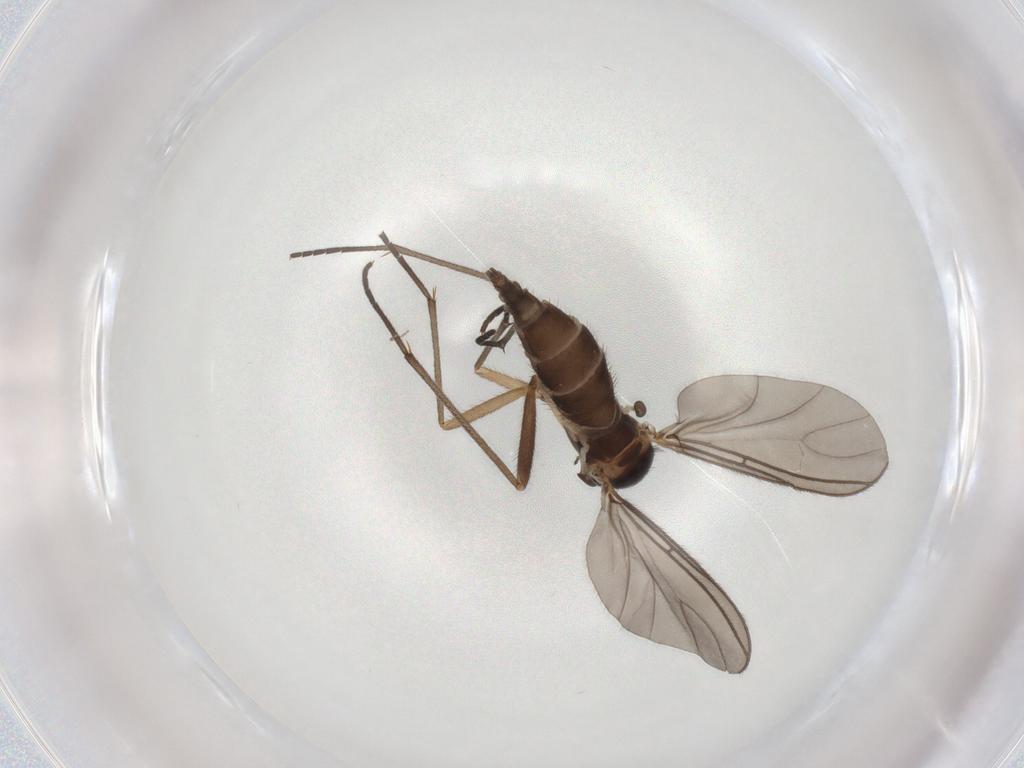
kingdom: Animalia
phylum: Arthropoda
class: Insecta
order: Diptera
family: Sciaridae
